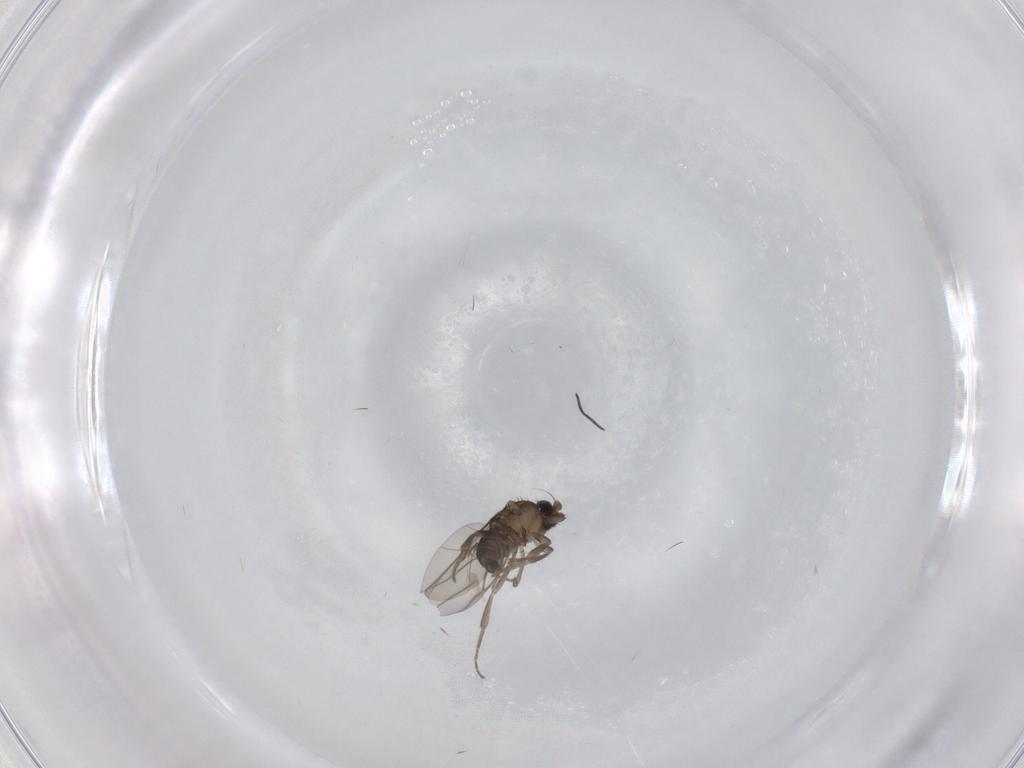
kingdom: Animalia
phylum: Arthropoda
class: Insecta
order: Diptera
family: Phoridae
